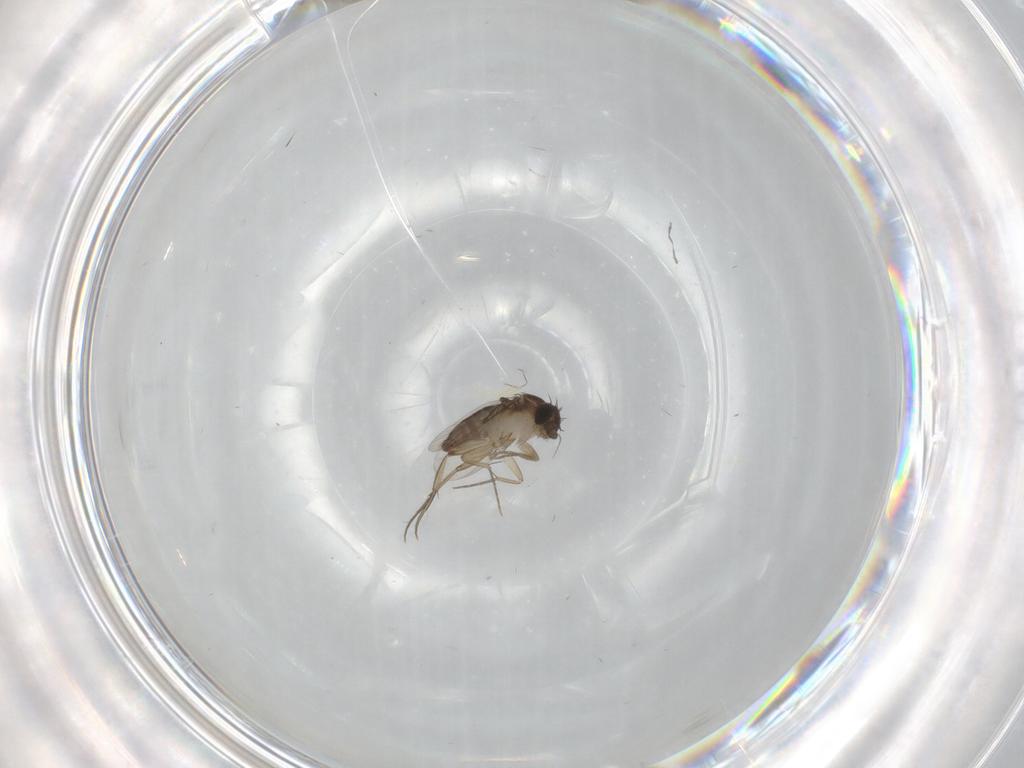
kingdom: Animalia
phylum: Arthropoda
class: Insecta
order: Diptera
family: Phoridae
